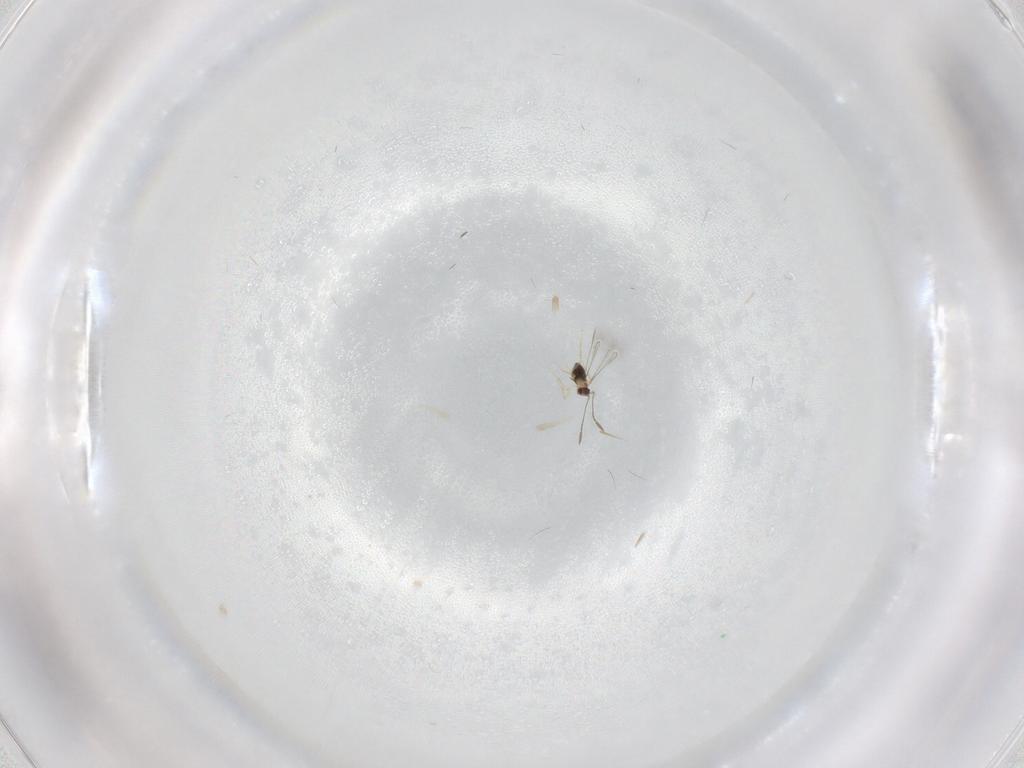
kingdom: Animalia
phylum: Arthropoda
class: Insecta
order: Hymenoptera
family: Mymaridae
